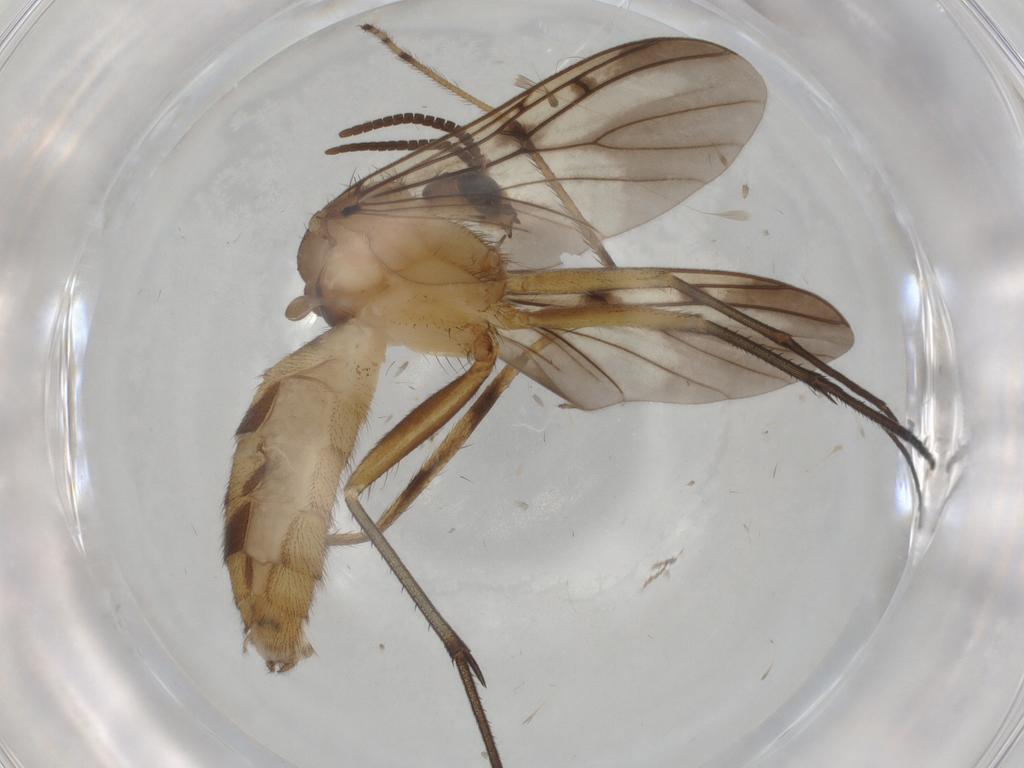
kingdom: Animalia
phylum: Arthropoda
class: Insecta
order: Diptera
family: Mycetophilidae
